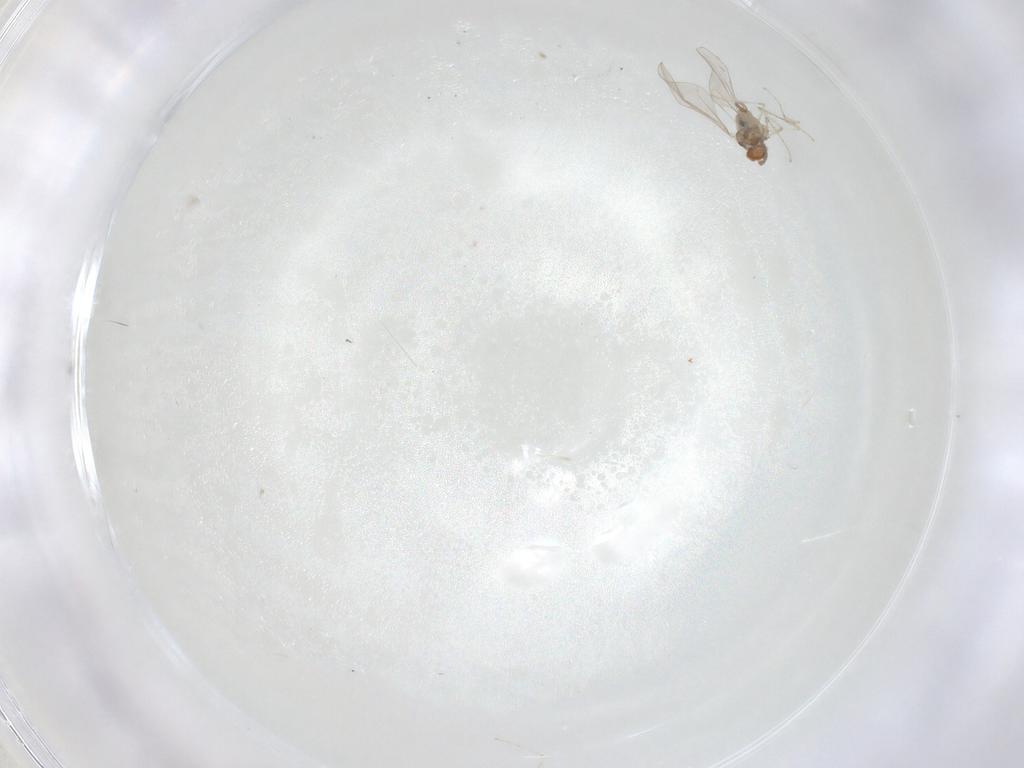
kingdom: Animalia
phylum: Arthropoda
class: Insecta
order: Diptera
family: Cecidomyiidae
